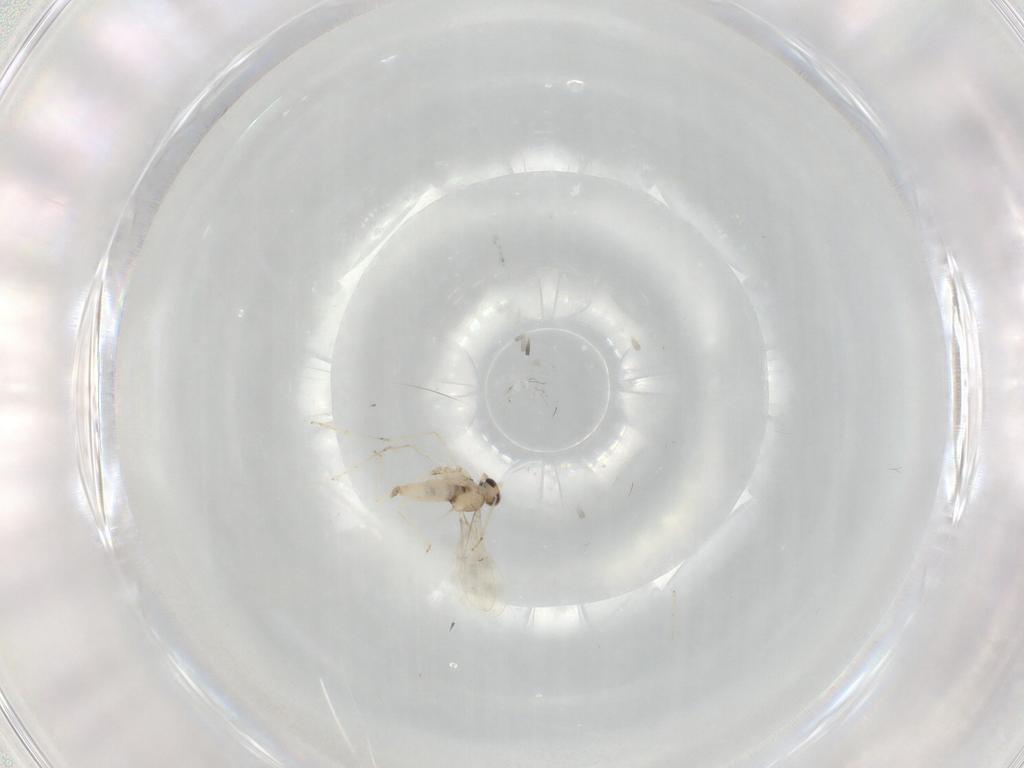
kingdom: Animalia
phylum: Arthropoda
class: Insecta
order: Diptera
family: Cecidomyiidae
